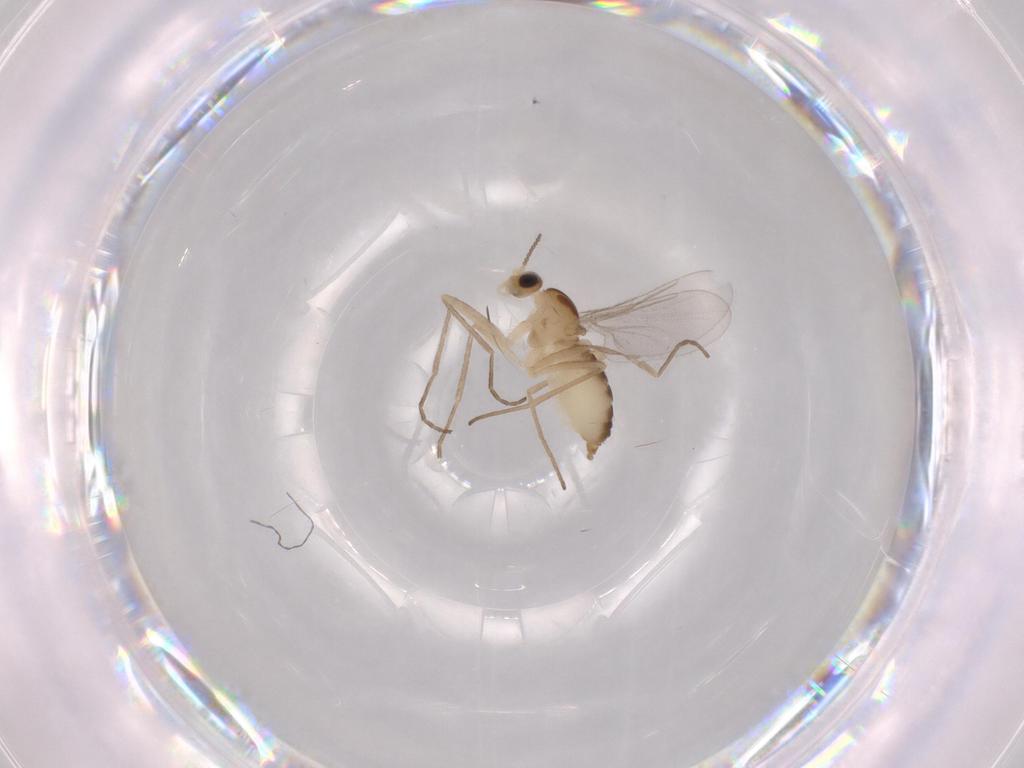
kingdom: Animalia
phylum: Arthropoda
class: Insecta
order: Diptera
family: Cecidomyiidae
